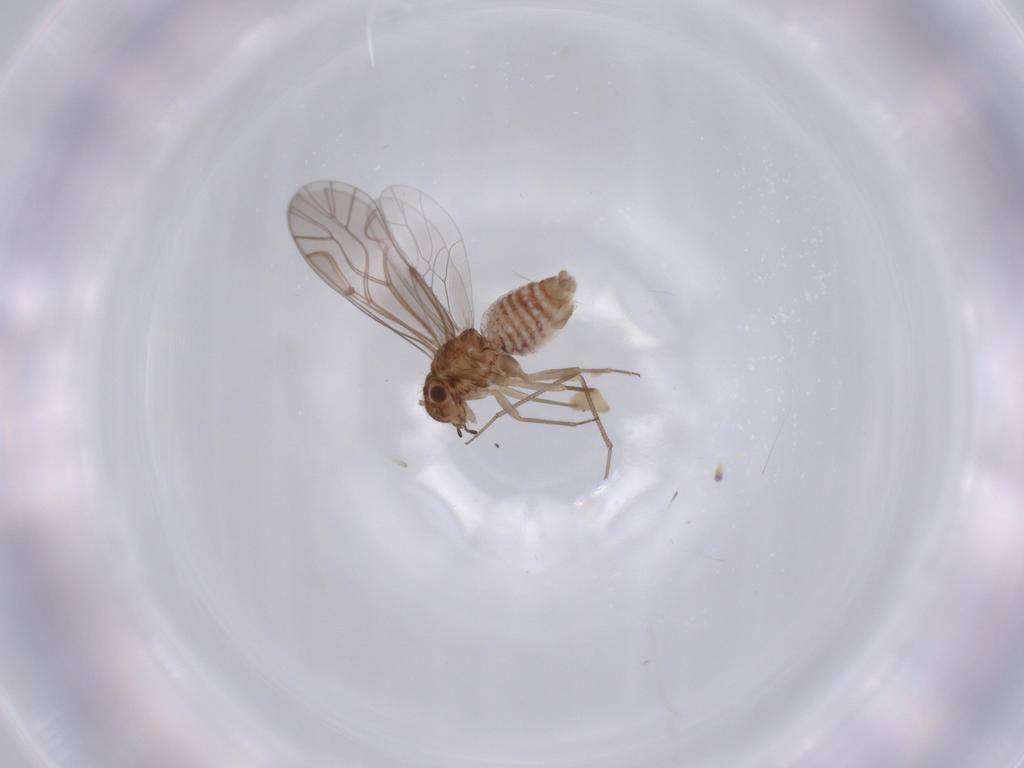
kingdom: Animalia
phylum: Arthropoda
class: Insecta
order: Psocodea
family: Lachesillidae
